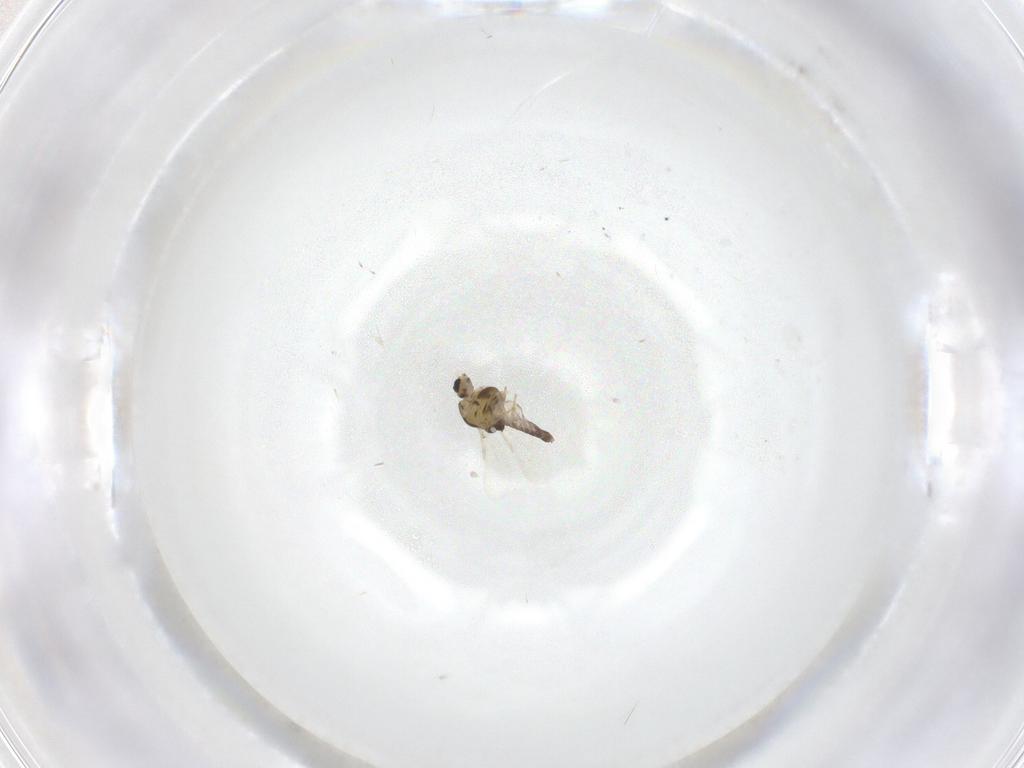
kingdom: Animalia
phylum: Arthropoda
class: Insecta
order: Diptera
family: Chironomidae
